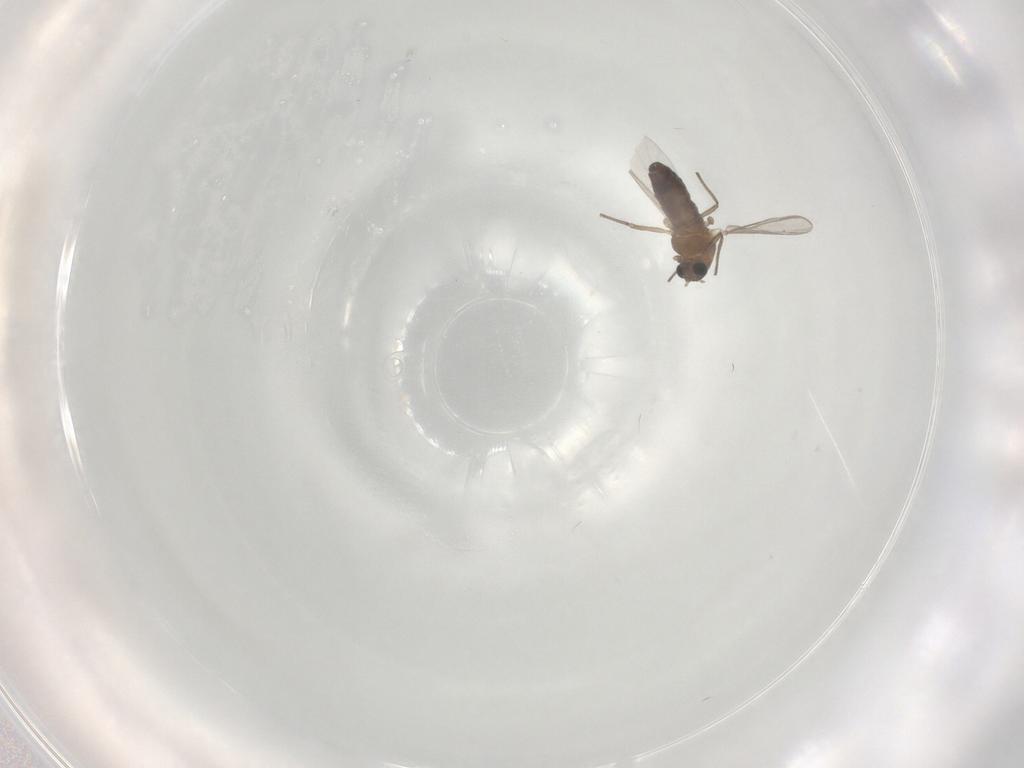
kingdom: Animalia
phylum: Arthropoda
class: Insecta
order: Diptera
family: Chironomidae
